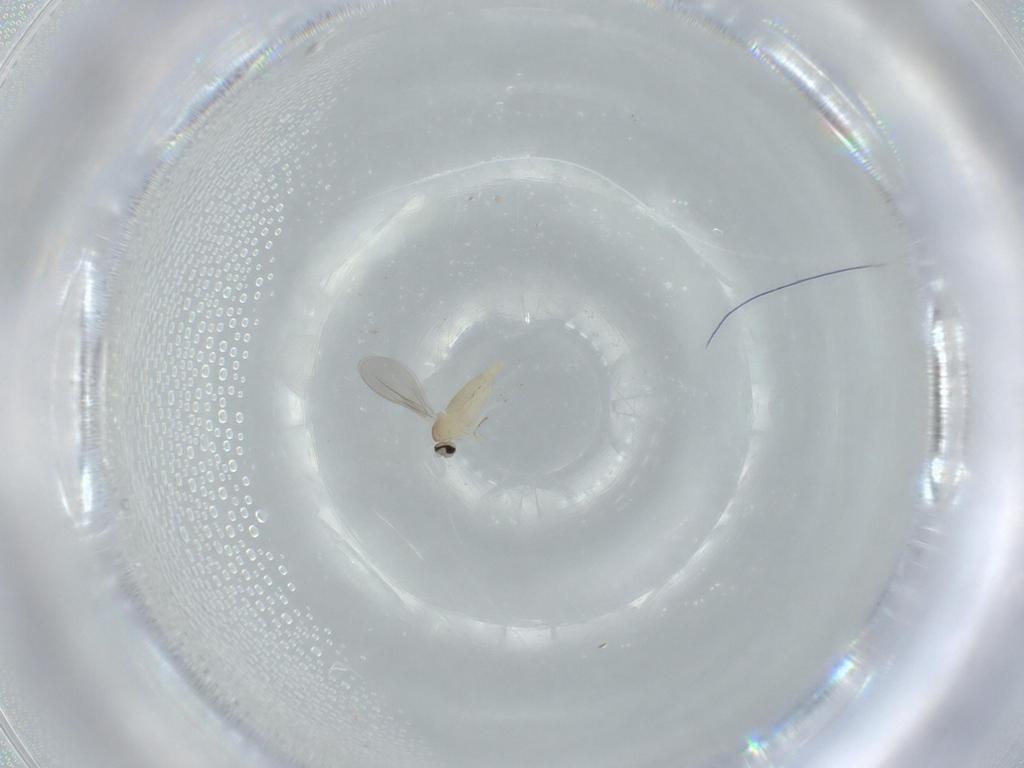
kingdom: Animalia
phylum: Arthropoda
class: Insecta
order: Diptera
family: Cecidomyiidae
